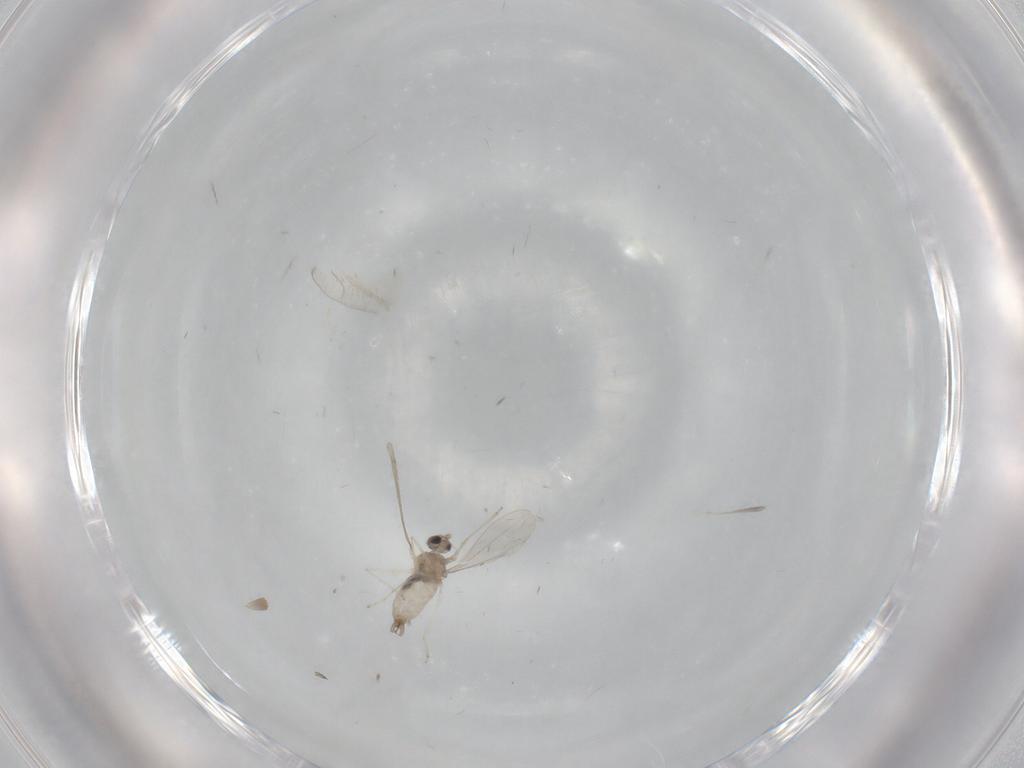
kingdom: Animalia
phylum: Arthropoda
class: Insecta
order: Diptera
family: Cecidomyiidae
